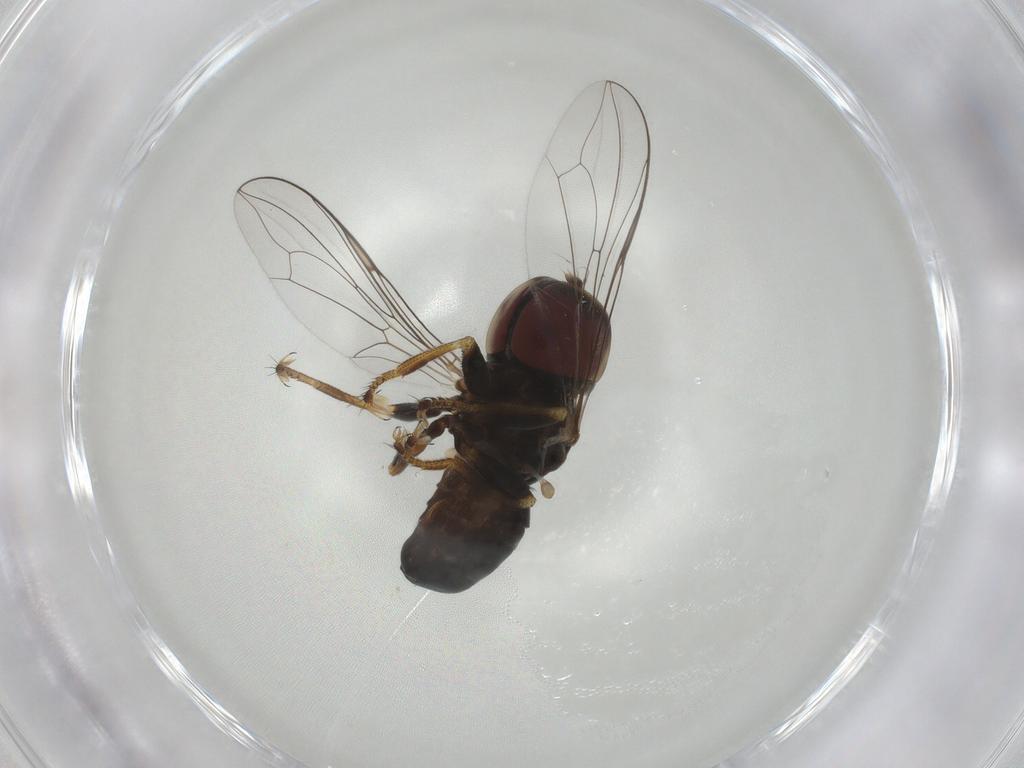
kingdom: Animalia
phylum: Arthropoda
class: Insecta
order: Diptera
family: Pipunculidae
